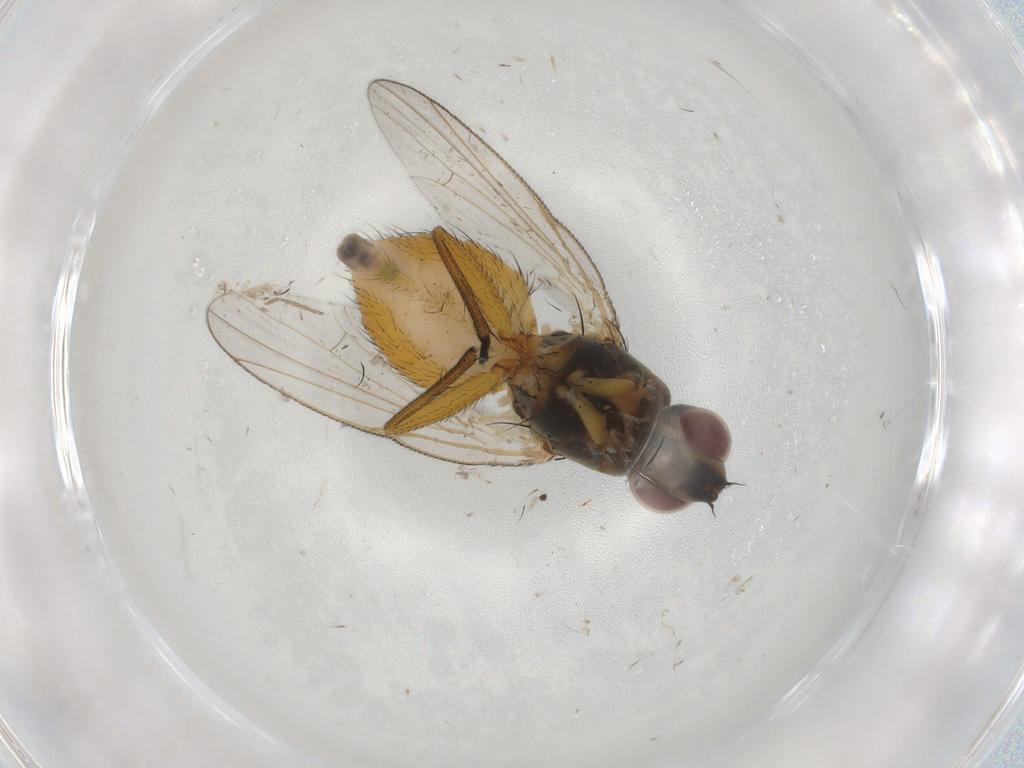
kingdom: Animalia
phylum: Arthropoda
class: Insecta
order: Diptera
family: Muscidae
